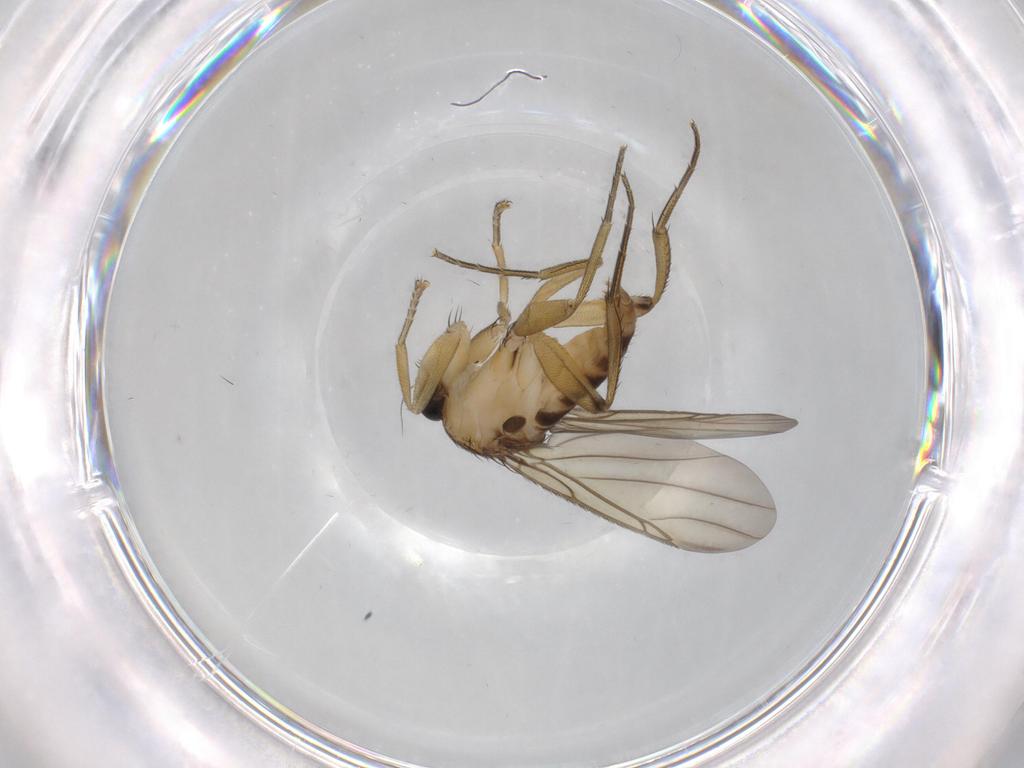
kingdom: Animalia
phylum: Arthropoda
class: Insecta
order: Diptera
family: Phoridae
